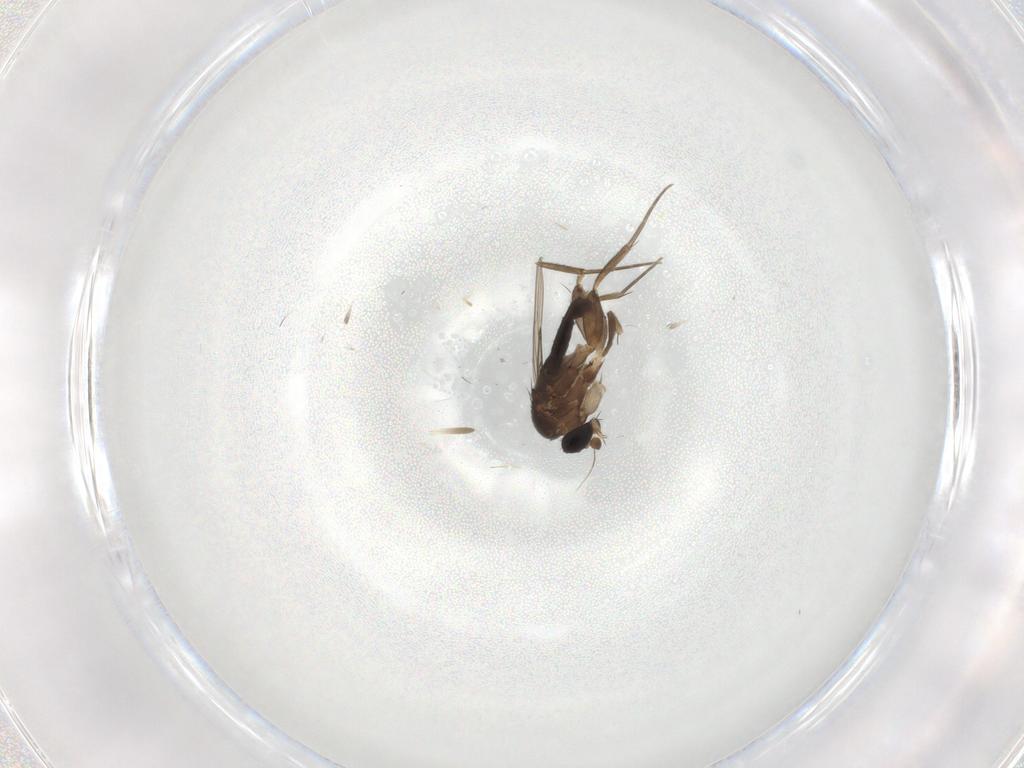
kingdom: Animalia
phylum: Arthropoda
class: Insecta
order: Diptera
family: Phoridae
